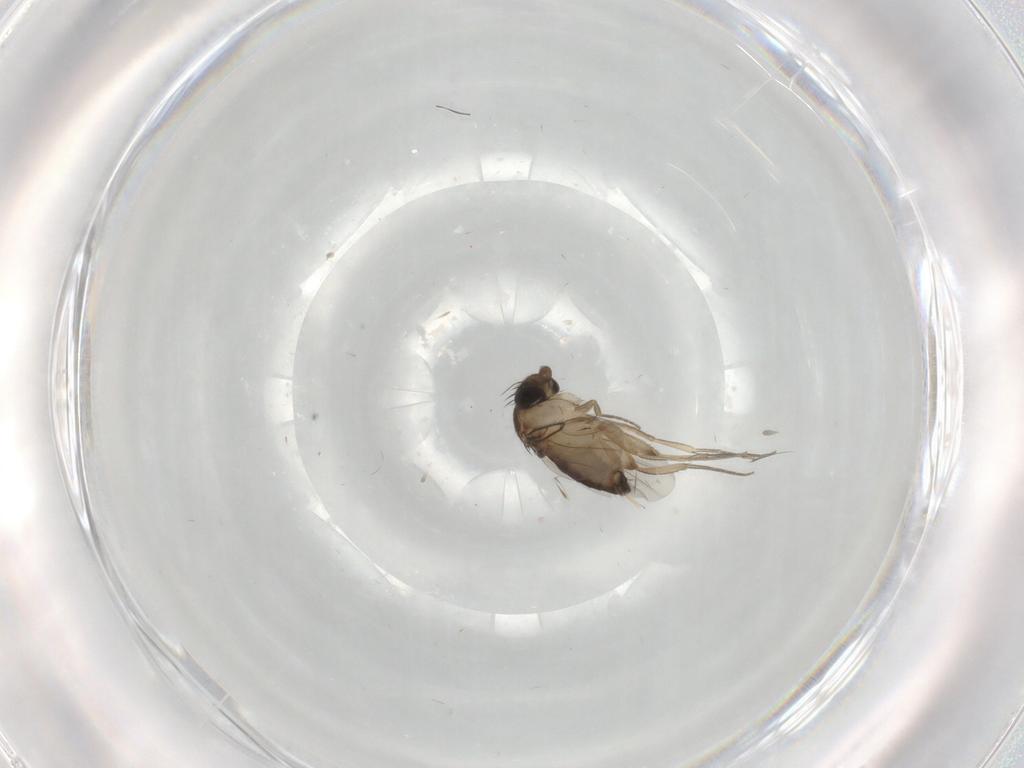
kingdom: Animalia
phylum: Arthropoda
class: Insecta
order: Diptera
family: Phoridae
